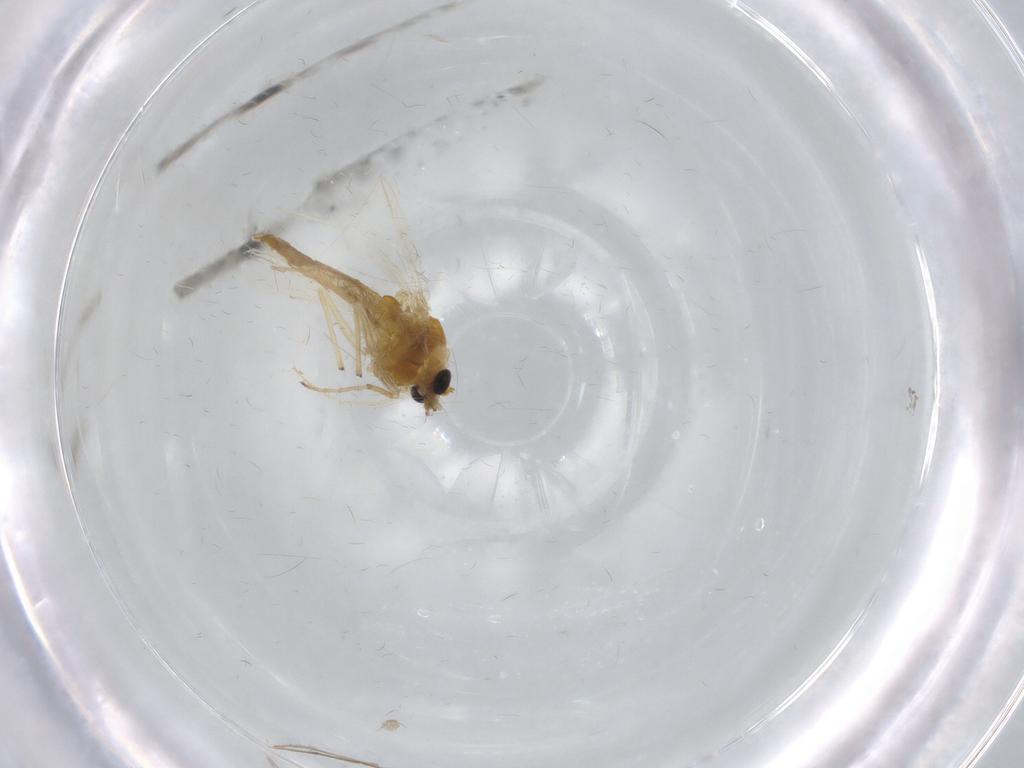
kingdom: Animalia
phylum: Arthropoda
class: Insecta
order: Diptera
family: Chironomidae
